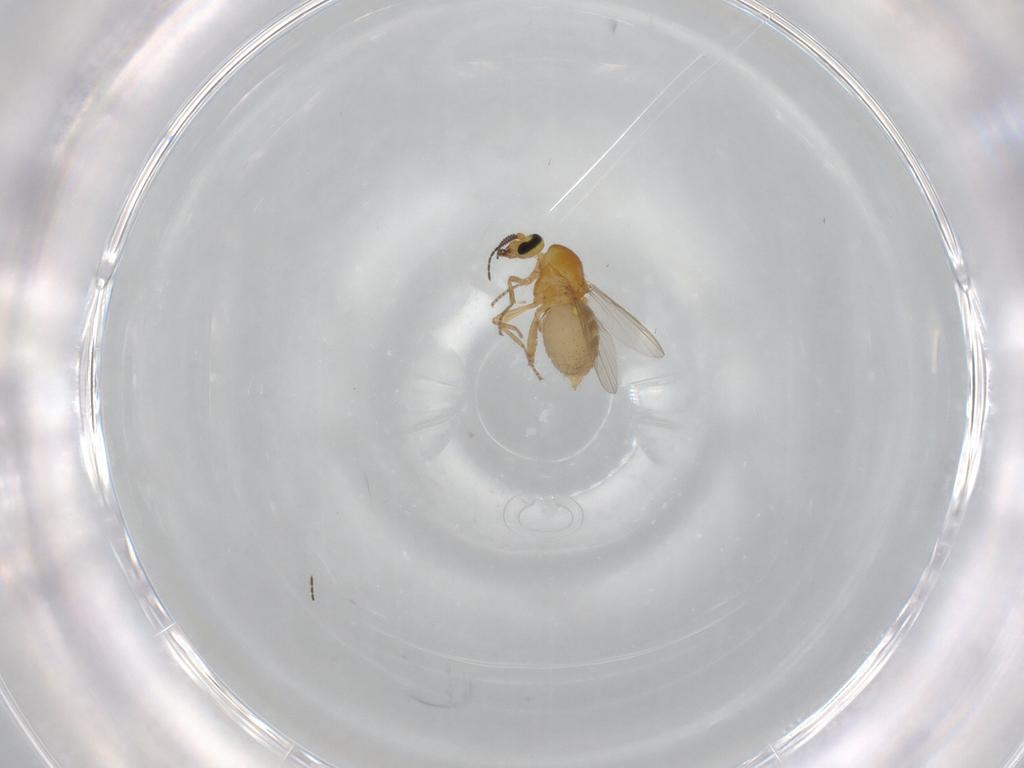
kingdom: Animalia
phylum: Arthropoda
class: Insecta
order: Diptera
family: Ceratopogonidae
